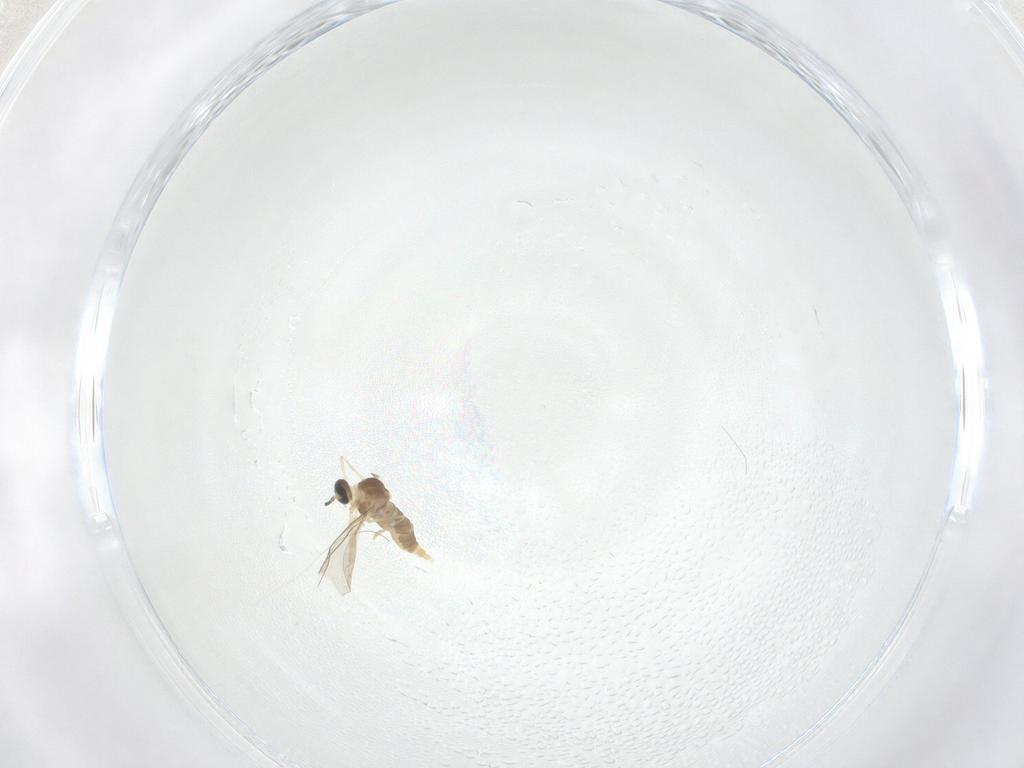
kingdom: Animalia
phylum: Arthropoda
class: Insecta
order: Diptera
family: Cecidomyiidae
